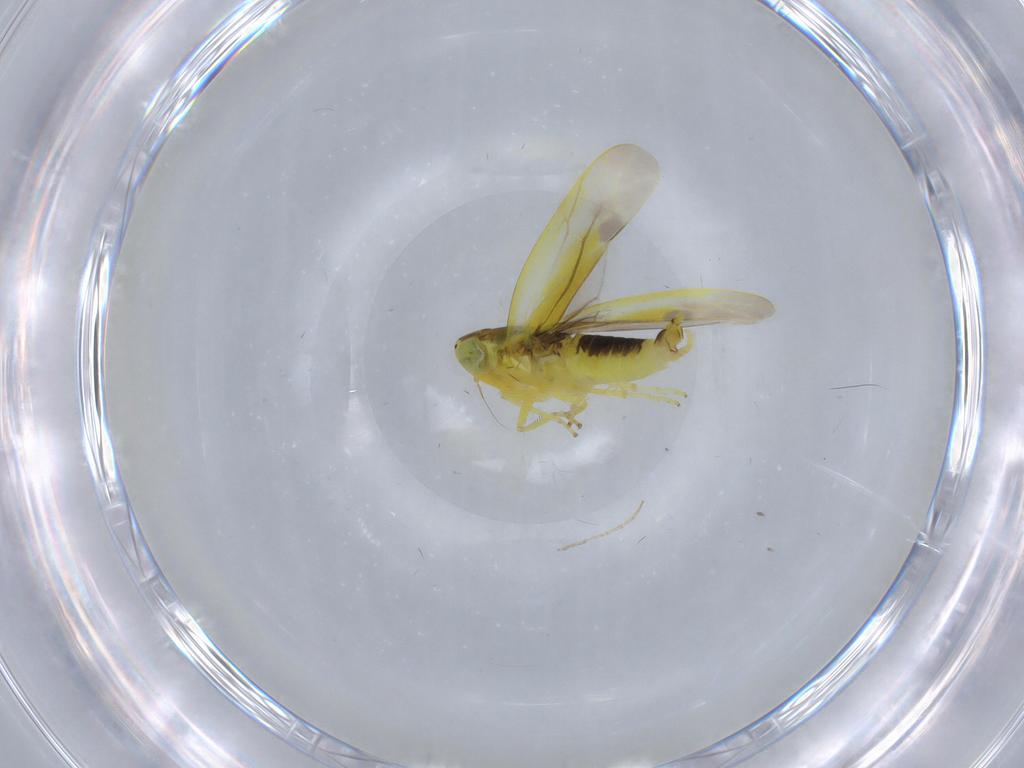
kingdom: Animalia
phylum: Arthropoda
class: Insecta
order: Hemiptera
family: Cicadellidae
